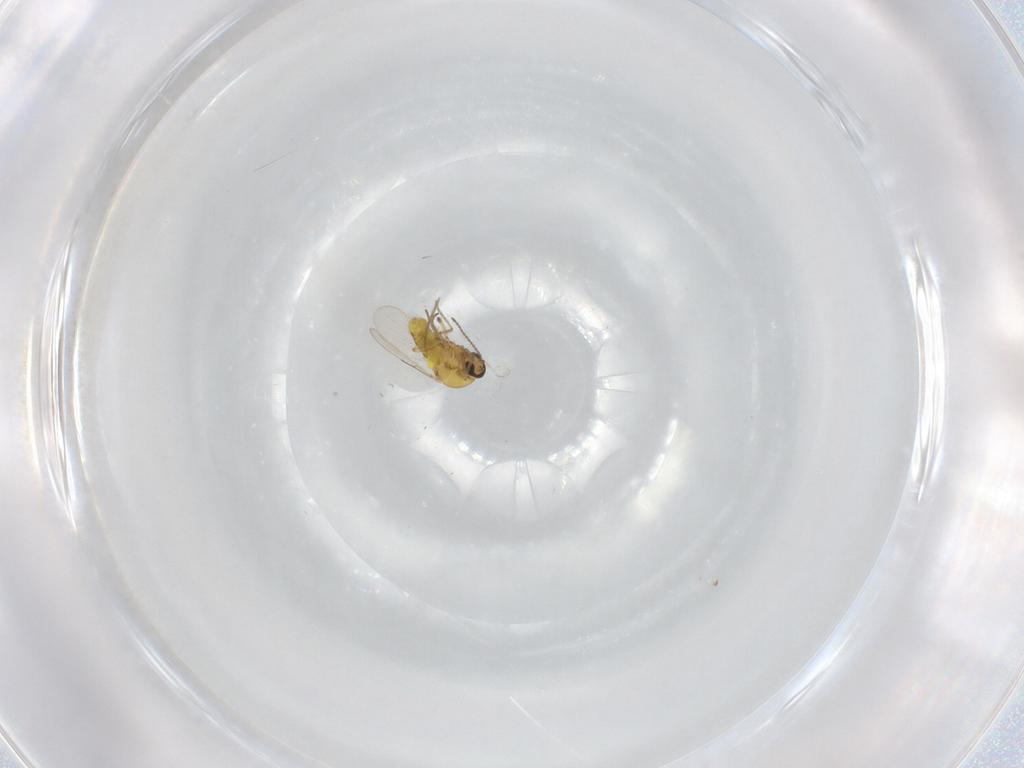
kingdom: Animalia
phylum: Arthropoda
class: Insecta
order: Diptera
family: Ceratopogonidae
